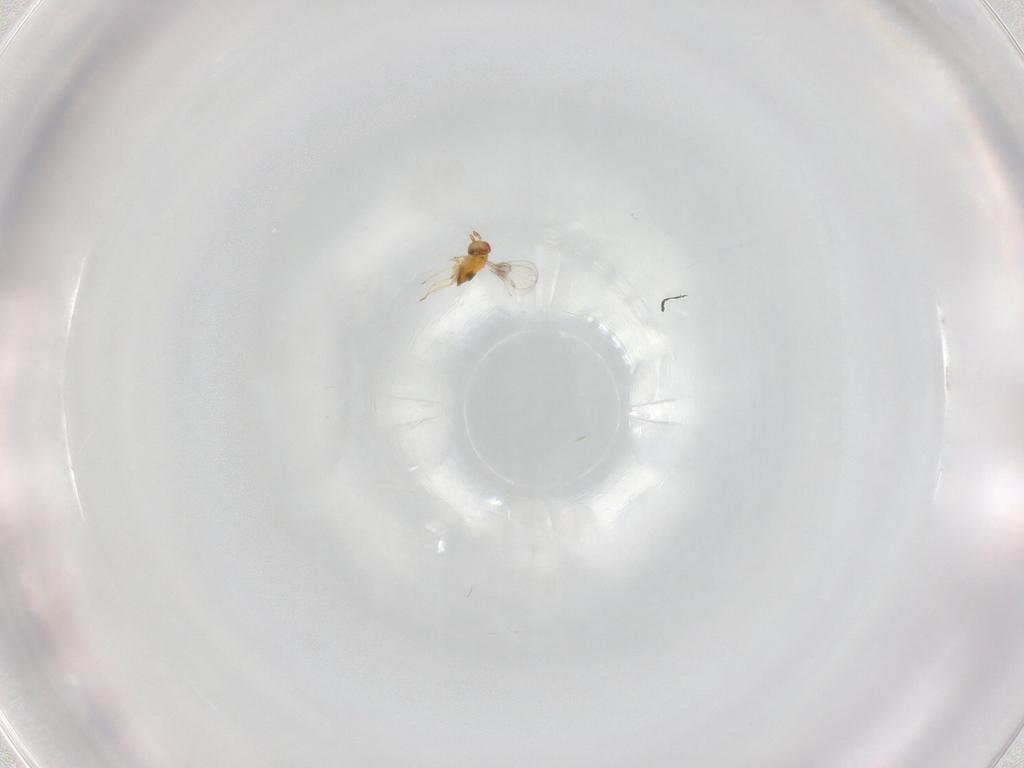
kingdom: Animalia
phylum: Arthropoda
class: Insecta
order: Hymenoptera
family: Trichogrammatidae
